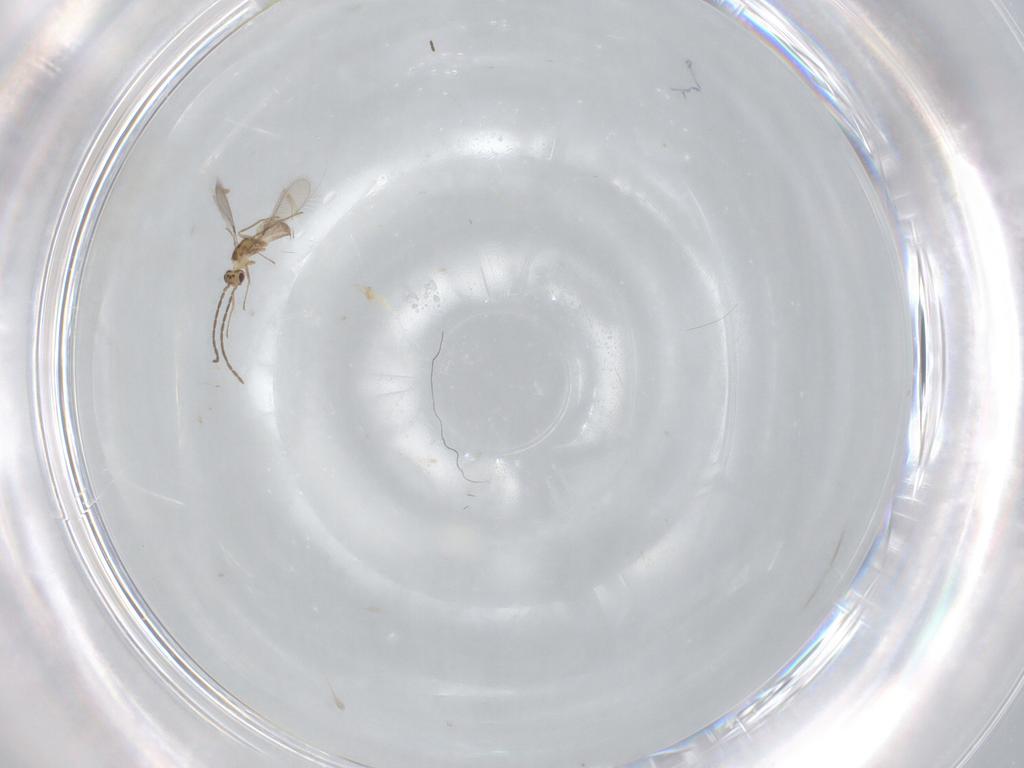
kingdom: Animalia
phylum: Arthropoda
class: Insecta
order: Hymenoptera
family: Mymaridae
